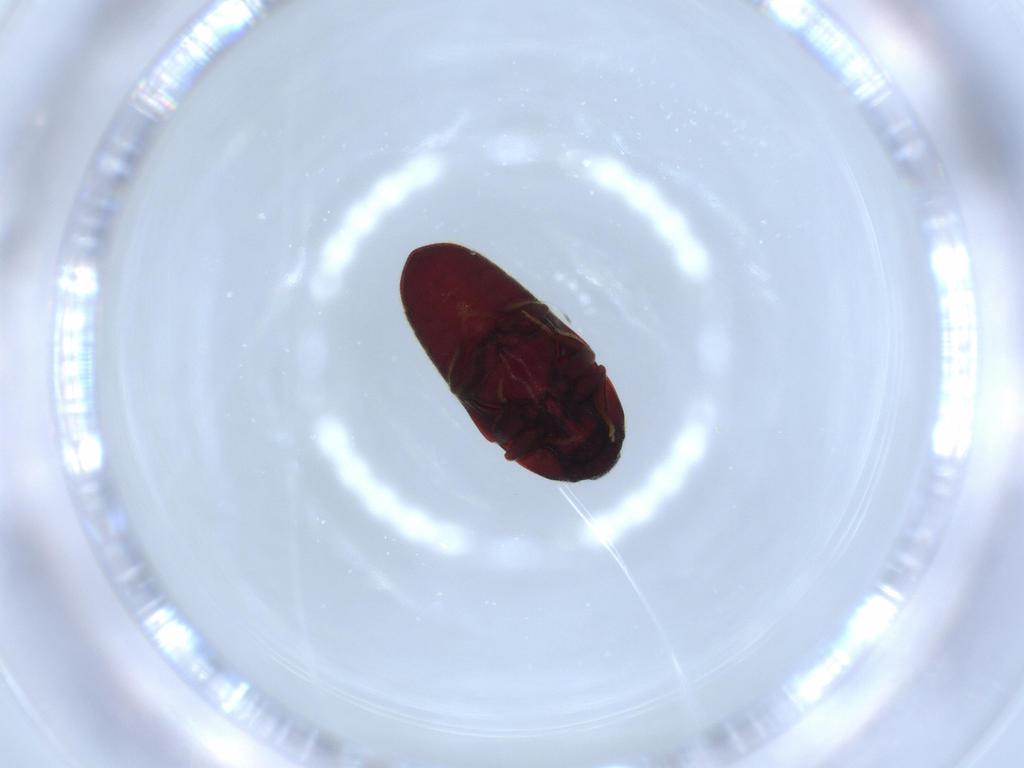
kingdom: Animalia
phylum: Arthropoda
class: Insecta
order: Coleoptera
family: Throscidae
